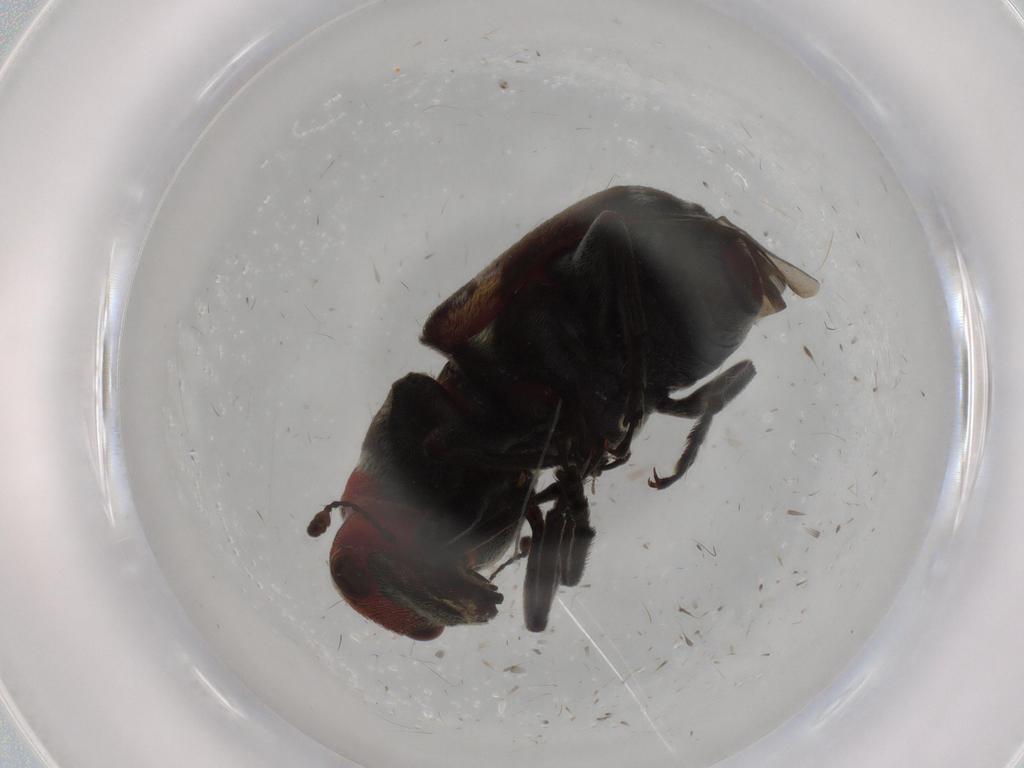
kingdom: Animalia
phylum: Arthropoda
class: Insecta
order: Coleoptera
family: Anthribidae
